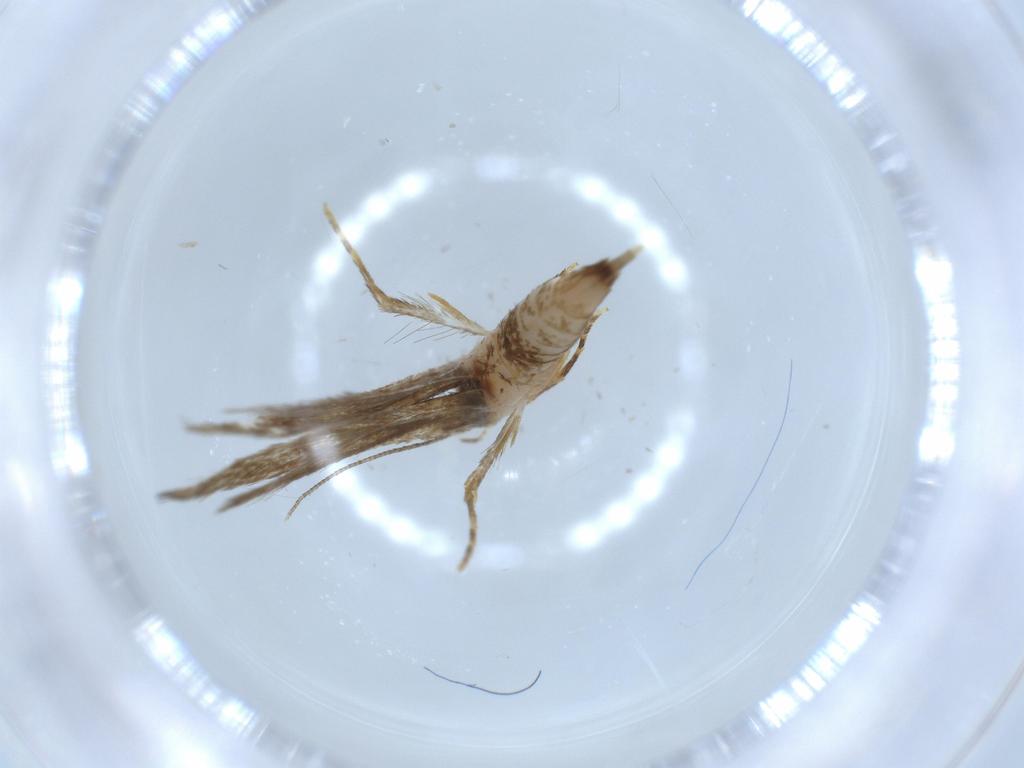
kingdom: Animalia
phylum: Arthropoda
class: Insecta
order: Lepidoptera
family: Tineidae
